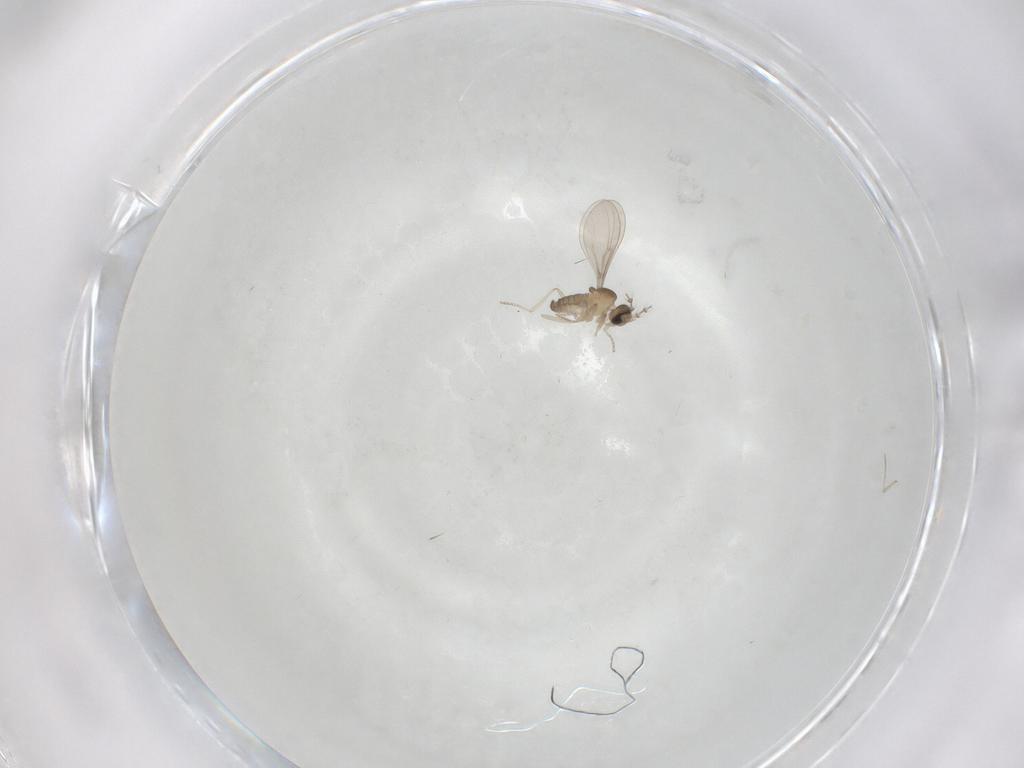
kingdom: Animalia
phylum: Arthropoda
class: Insecta
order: Diptera
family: Cecidomyiidae
